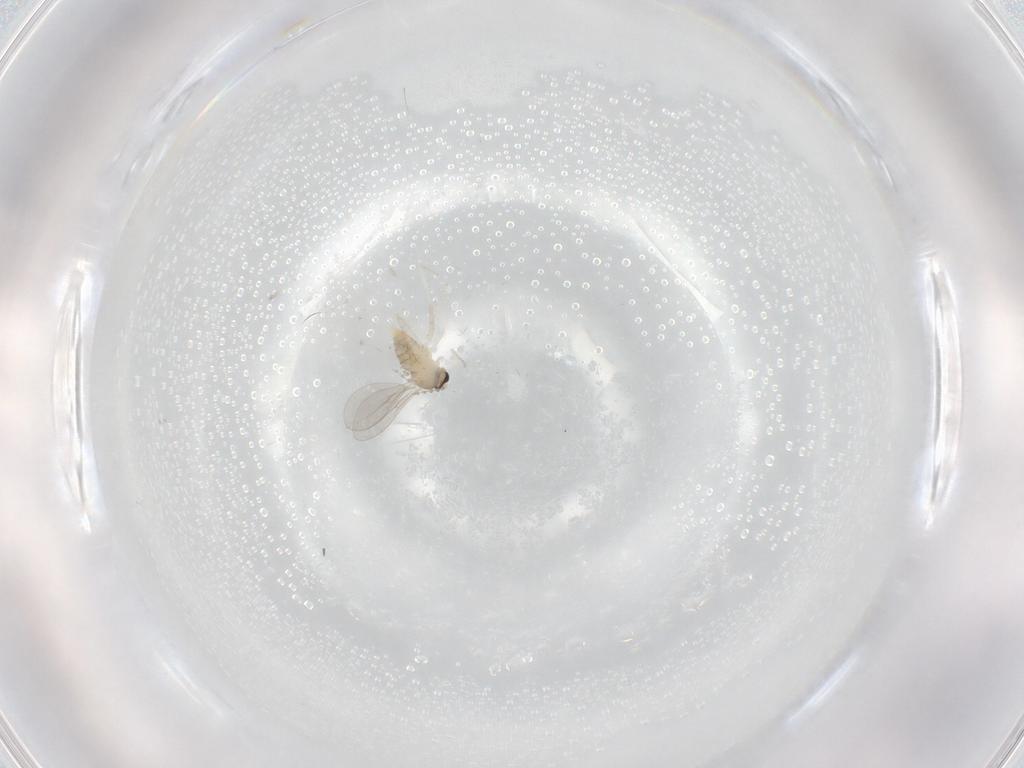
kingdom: Animalia
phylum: Arthropoda
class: Insecta
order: Diptera
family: Cecidomyiidae
